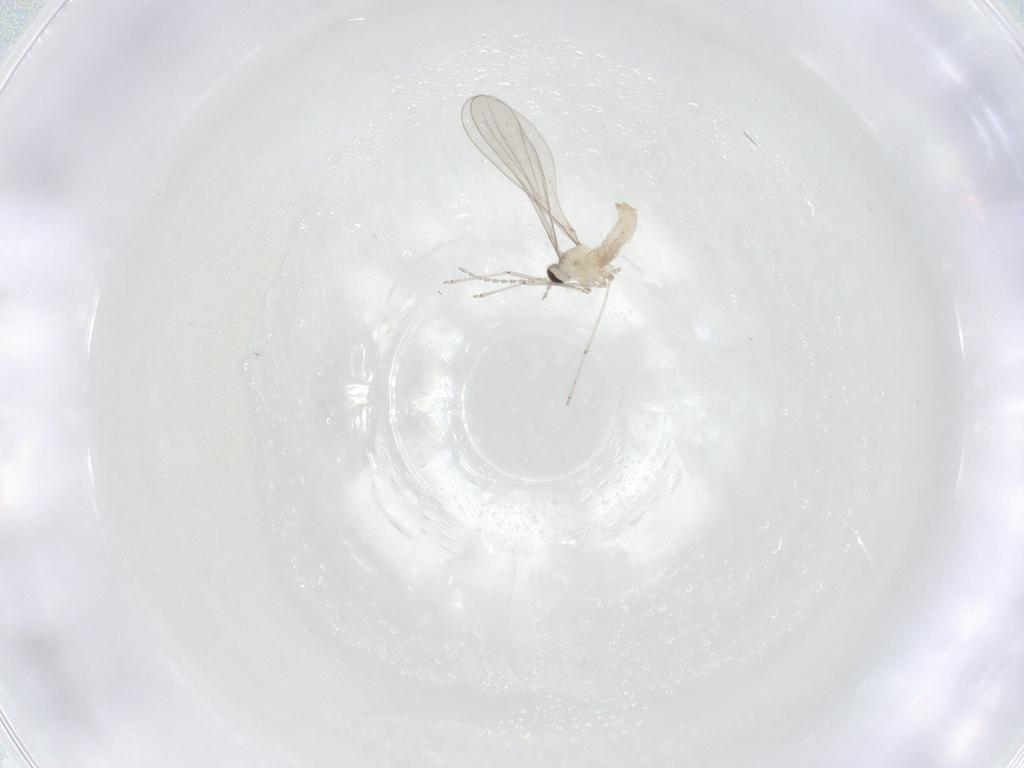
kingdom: Animalia
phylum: Arthropoda
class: Insecta
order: Diptera
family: Cecidomyiidae
